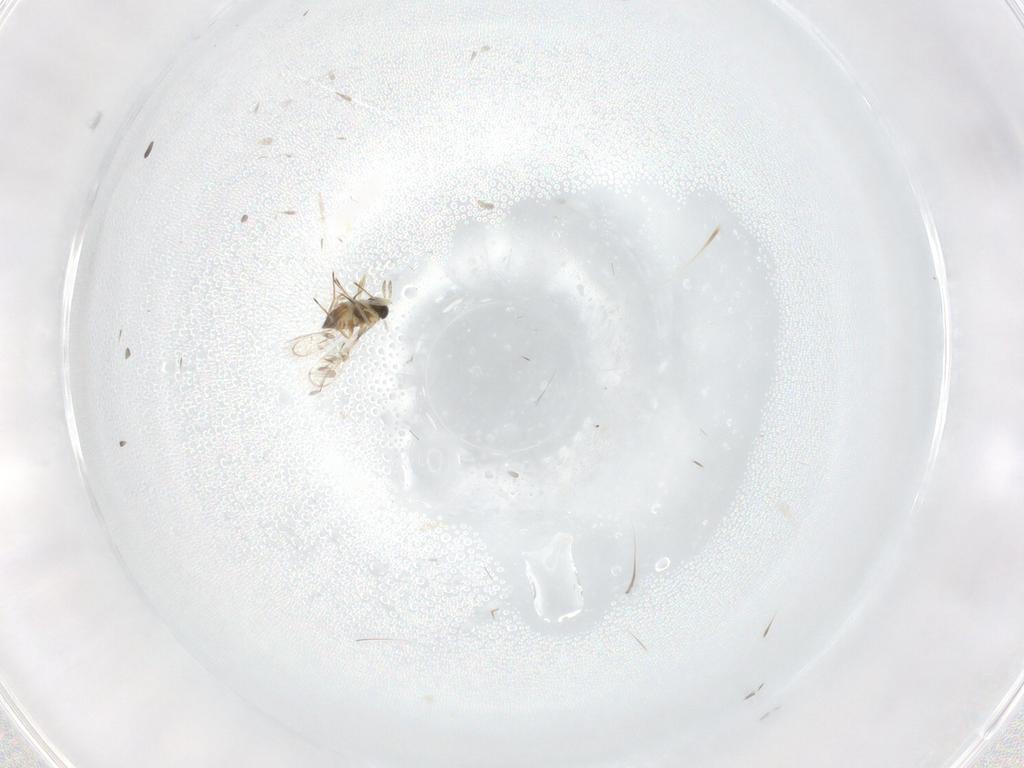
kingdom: Animalia
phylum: Arthropoda
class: Insecta
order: Hymenoptera
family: Trichogrammatidae
